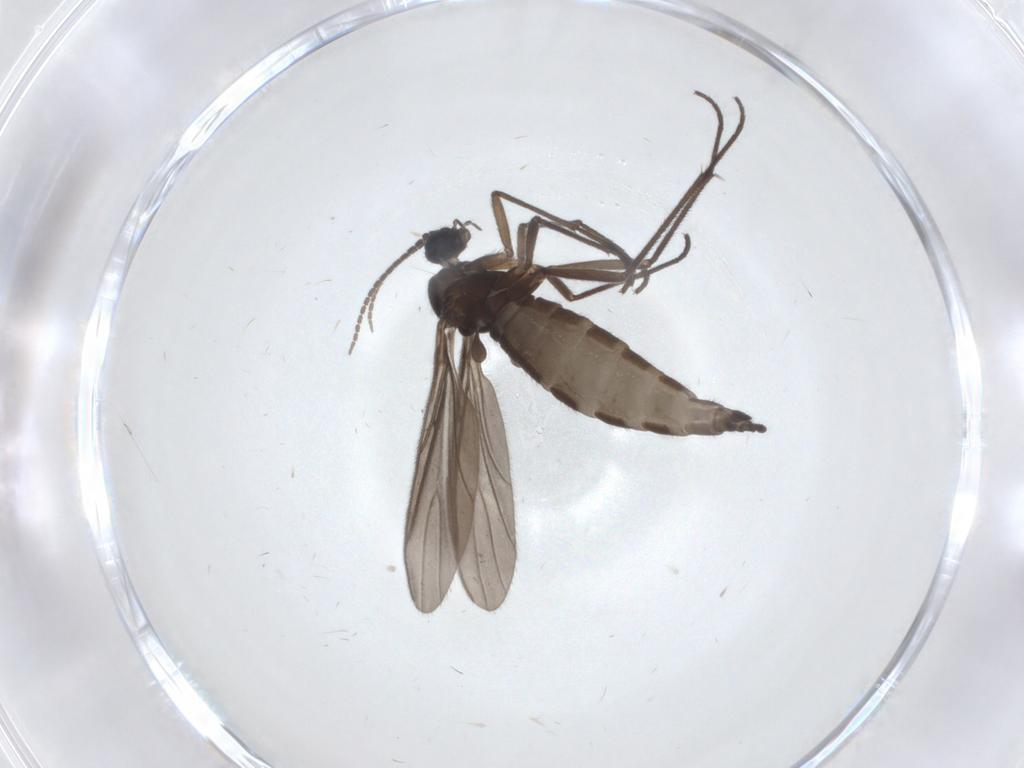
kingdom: Animalia
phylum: Arthropoda
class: Insecta
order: Diptera
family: Sciaridae
